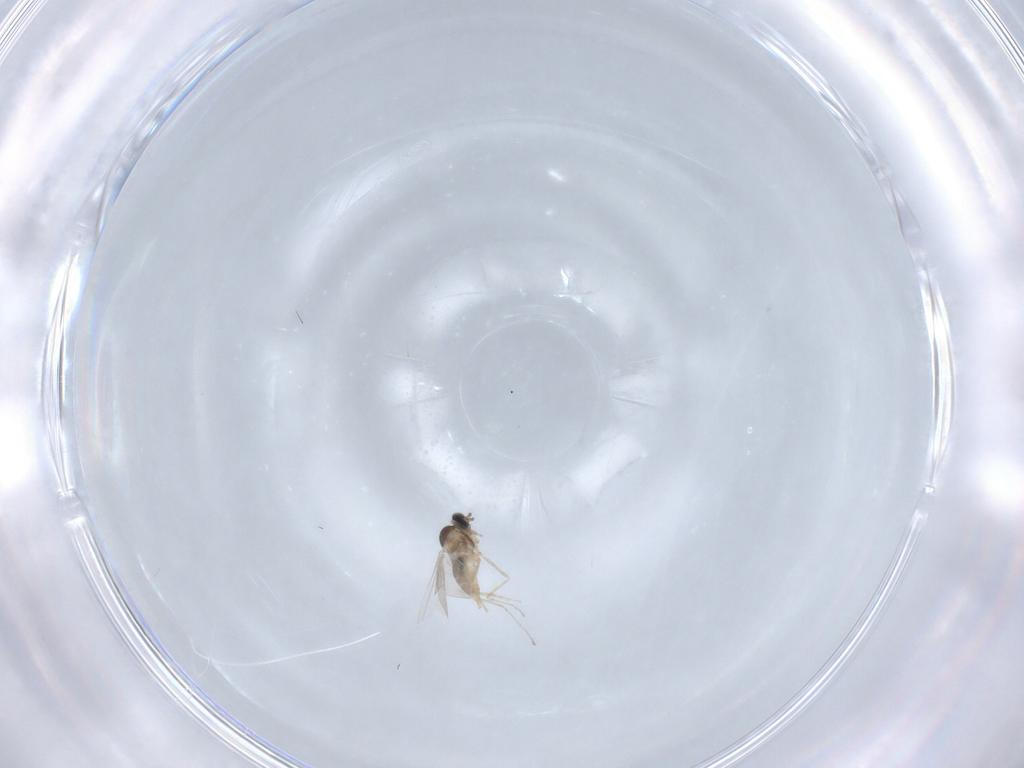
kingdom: Animalia
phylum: Arthropoda
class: Insecta
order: Diptera
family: Cecidomyiidae
